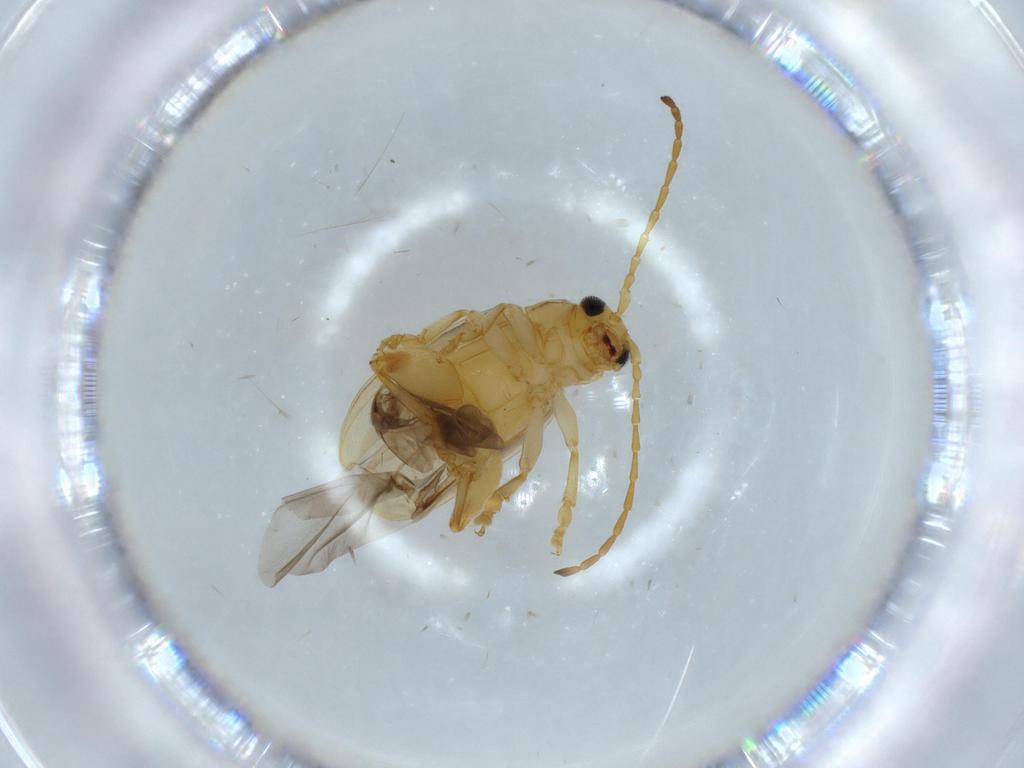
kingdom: Animalia
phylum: Arthropoda
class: Insecta
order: Coleoptera
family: Chrysomelidae
